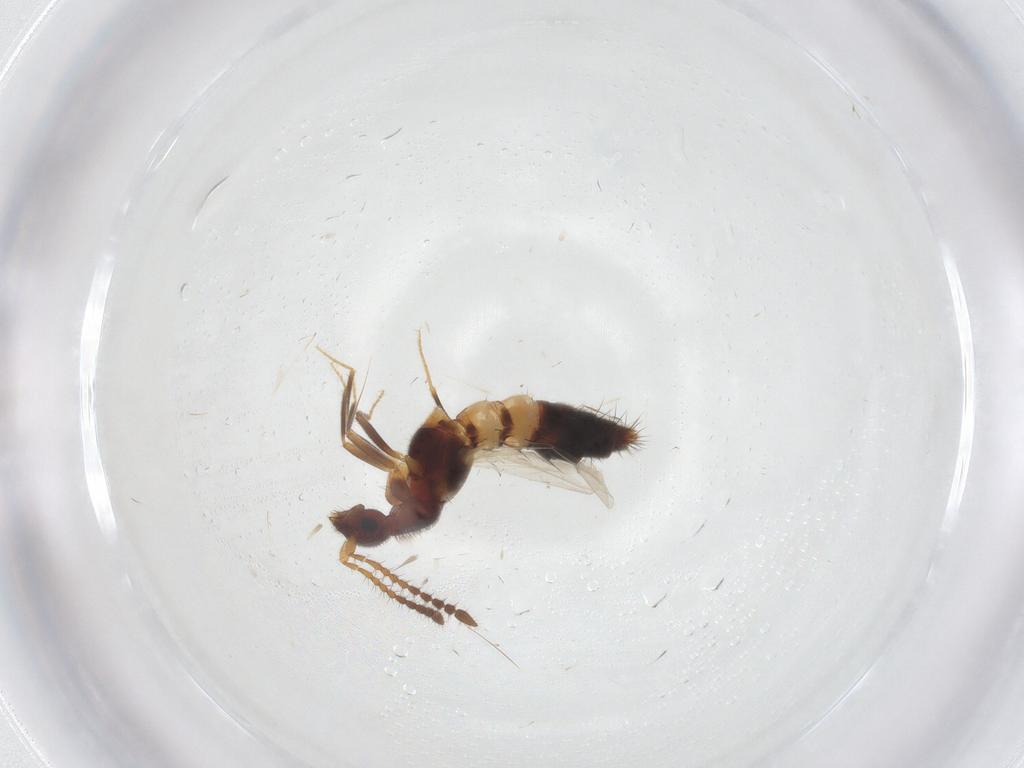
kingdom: Animalia
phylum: Arthropoda
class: Insecta
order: Coleoptera
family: Staphylinidae
